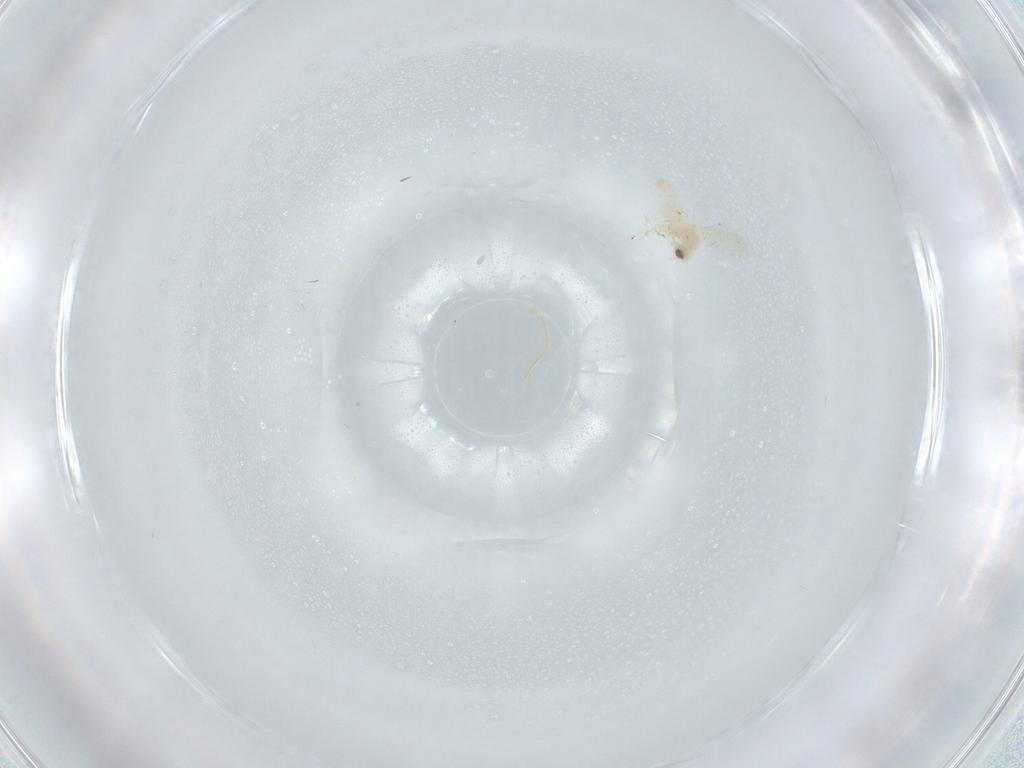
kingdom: Animalia
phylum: Arthropoda
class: Insecta
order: Hemiptera
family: Aleyrodidae
